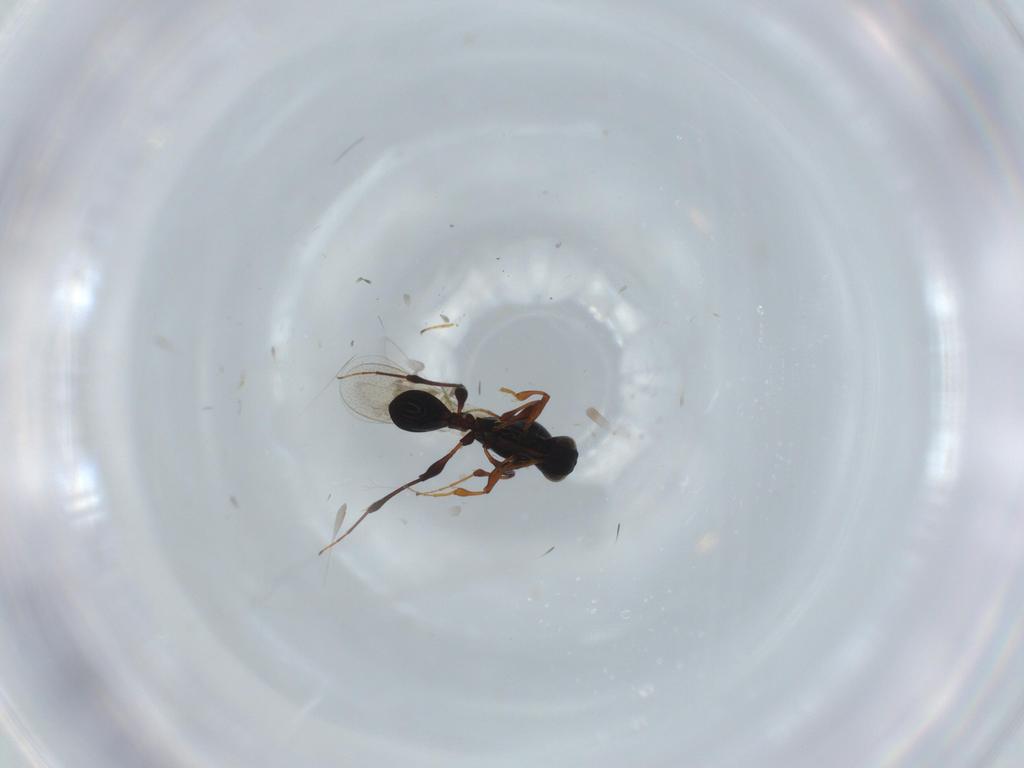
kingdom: Animalia
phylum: Arthropoda
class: Insecta
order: Hymenoptera
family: Platygastridae
